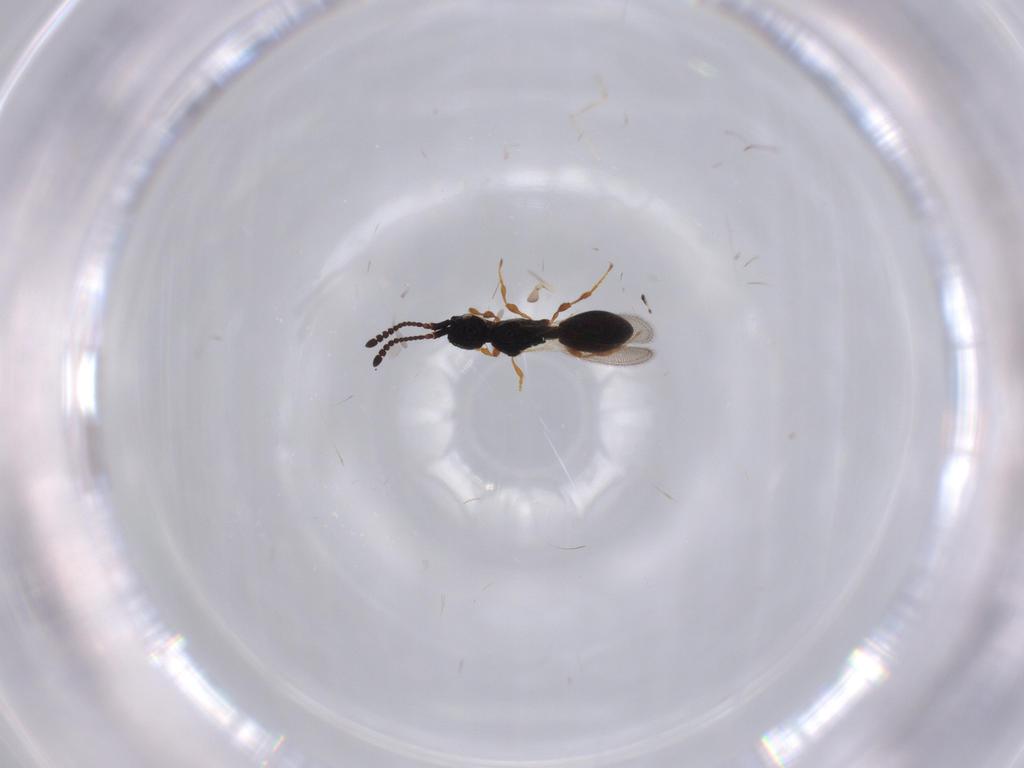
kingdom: Animalia
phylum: Arthropoda
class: Insecta
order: Hymenoptera
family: Diapriidae
